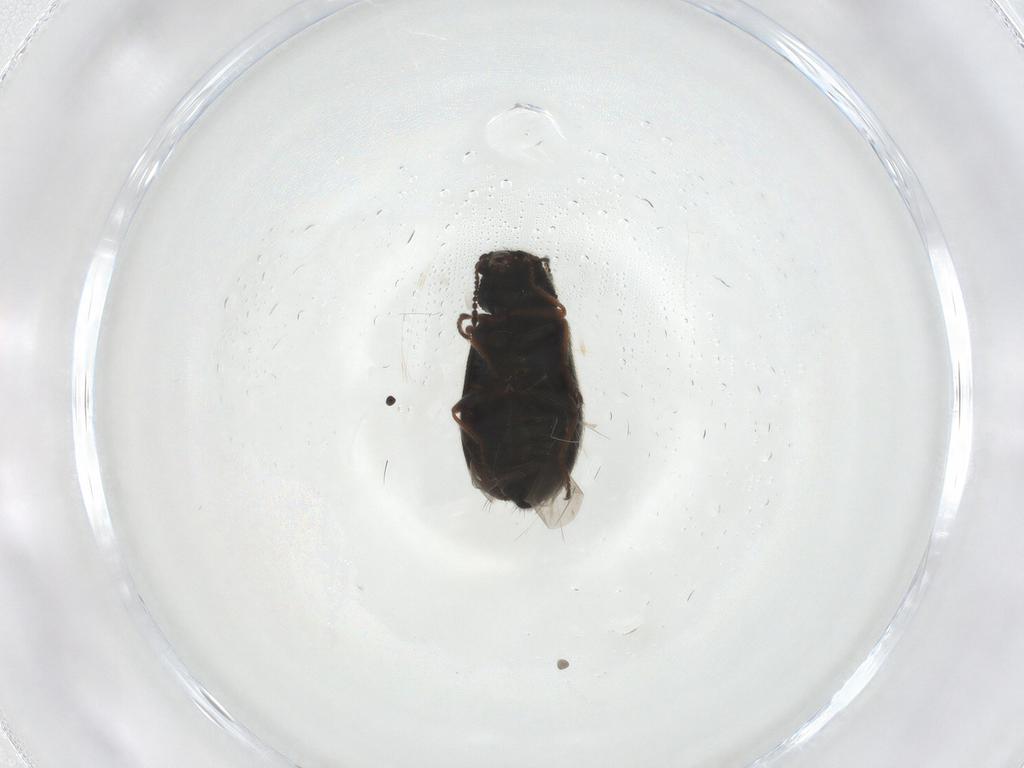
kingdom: Animalia
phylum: Arthropoda
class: Insecta
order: Coleoptera
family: Melyridae
